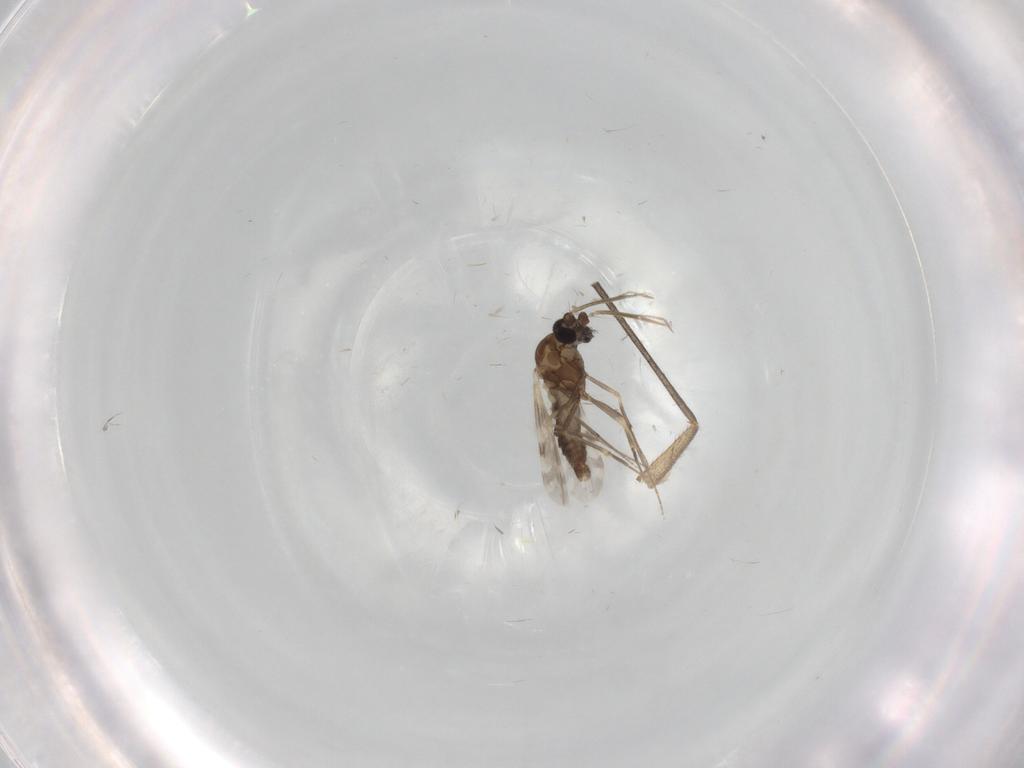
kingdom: Animalia
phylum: Arthropoda
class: Insecta
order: Diptera
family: Ceratopogonidae
